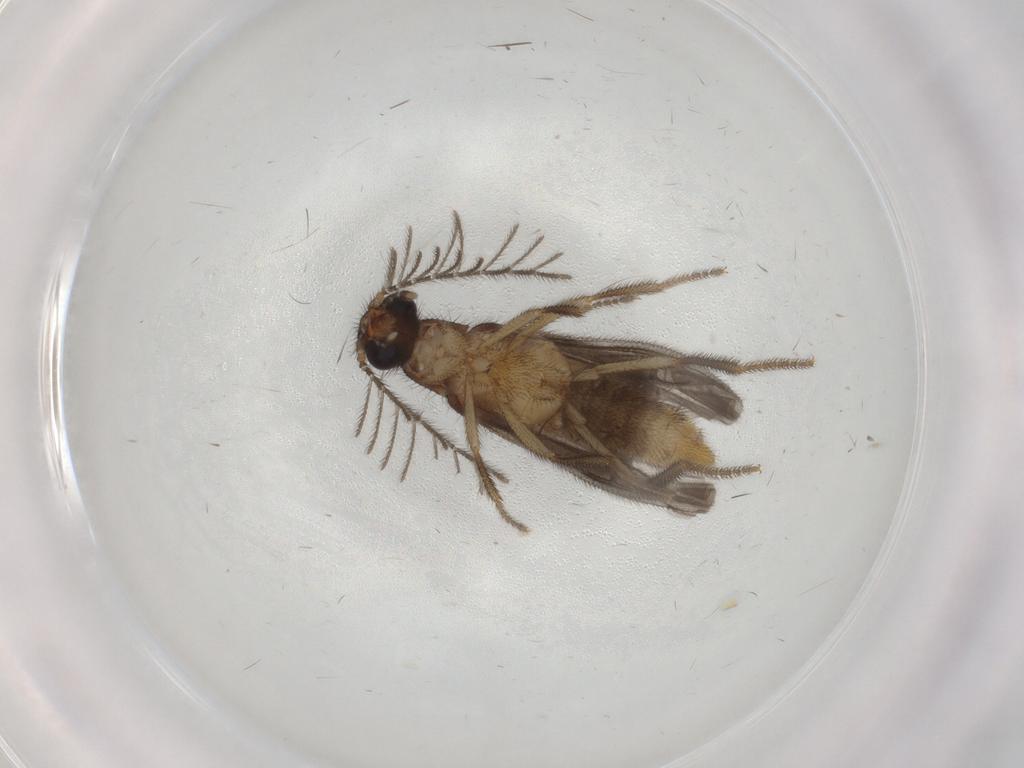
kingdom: Animalia
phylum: Arthropoda
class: Insecta
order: Coleoptera
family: Phengodidae
